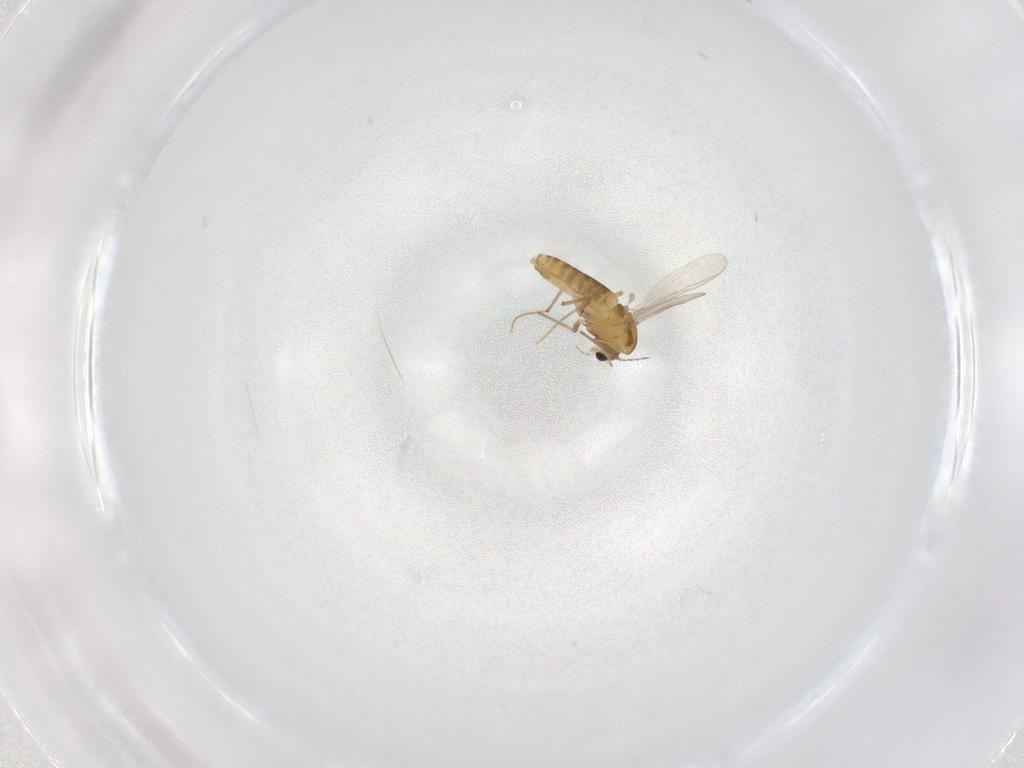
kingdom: Animalia
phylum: Arthropoda
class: Insecta
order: Diptera
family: Chironomidae
